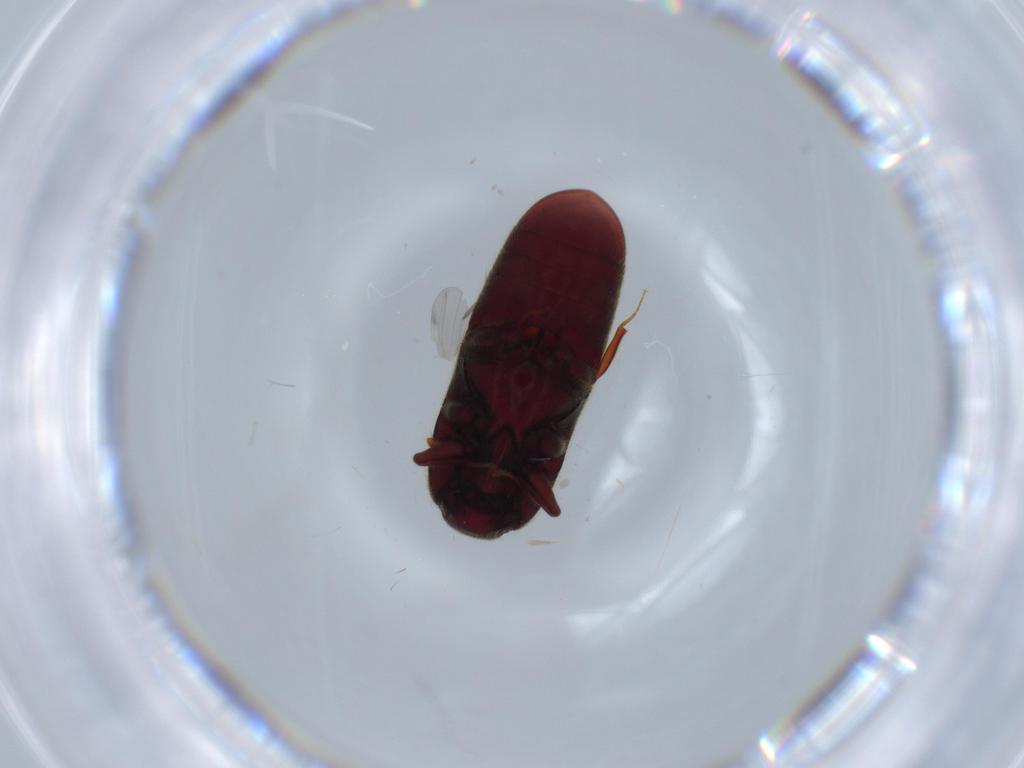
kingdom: Animalia
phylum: Arthropoda
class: Insecta
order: Coleoptera
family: Throscidae
